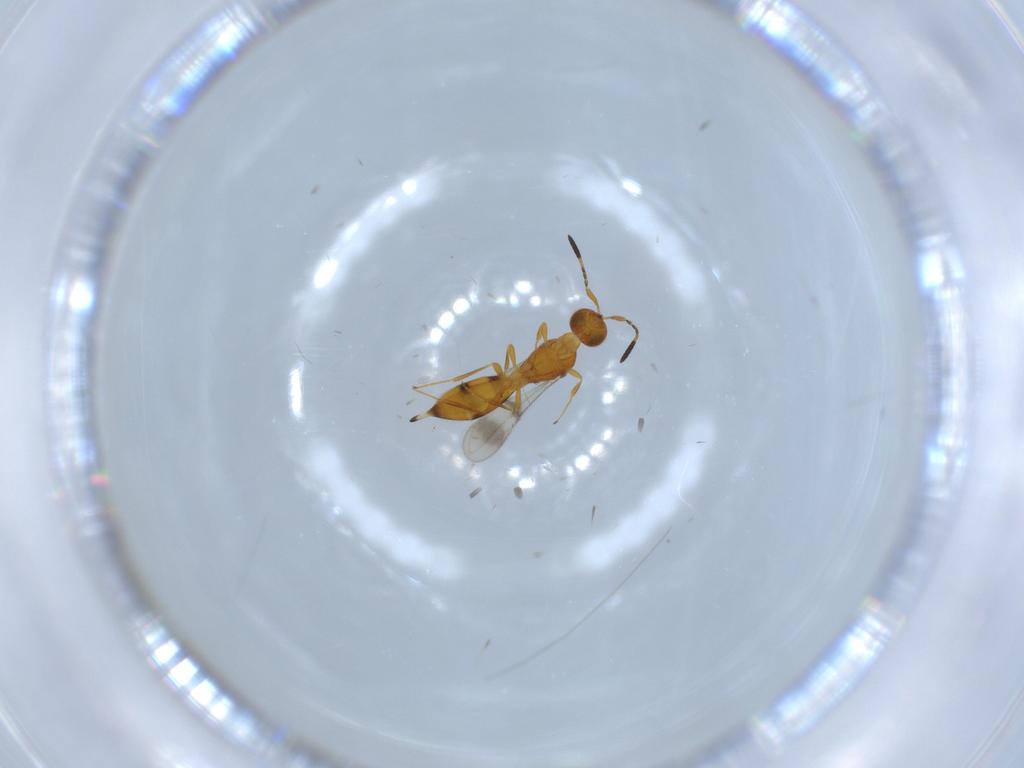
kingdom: Animalia
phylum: Arthropoda
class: Insecta
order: Hymenoptera
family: Scelionidae
